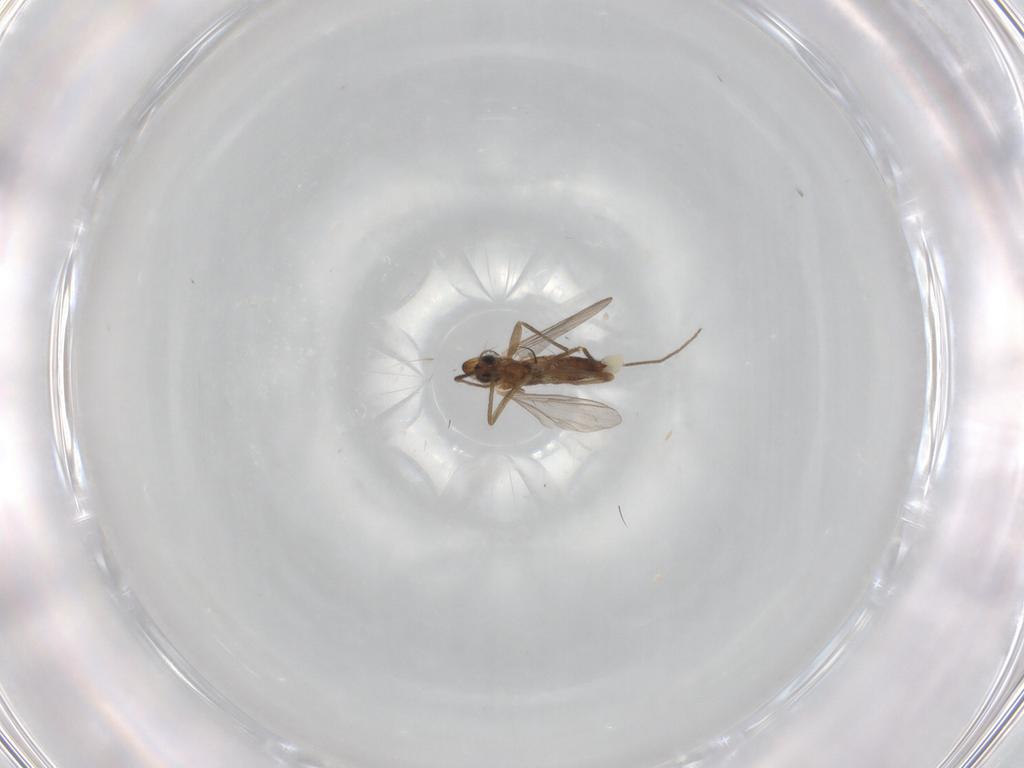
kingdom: Animalia
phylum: Arthropoda
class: Insecta
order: Diptera
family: Chironomidae
